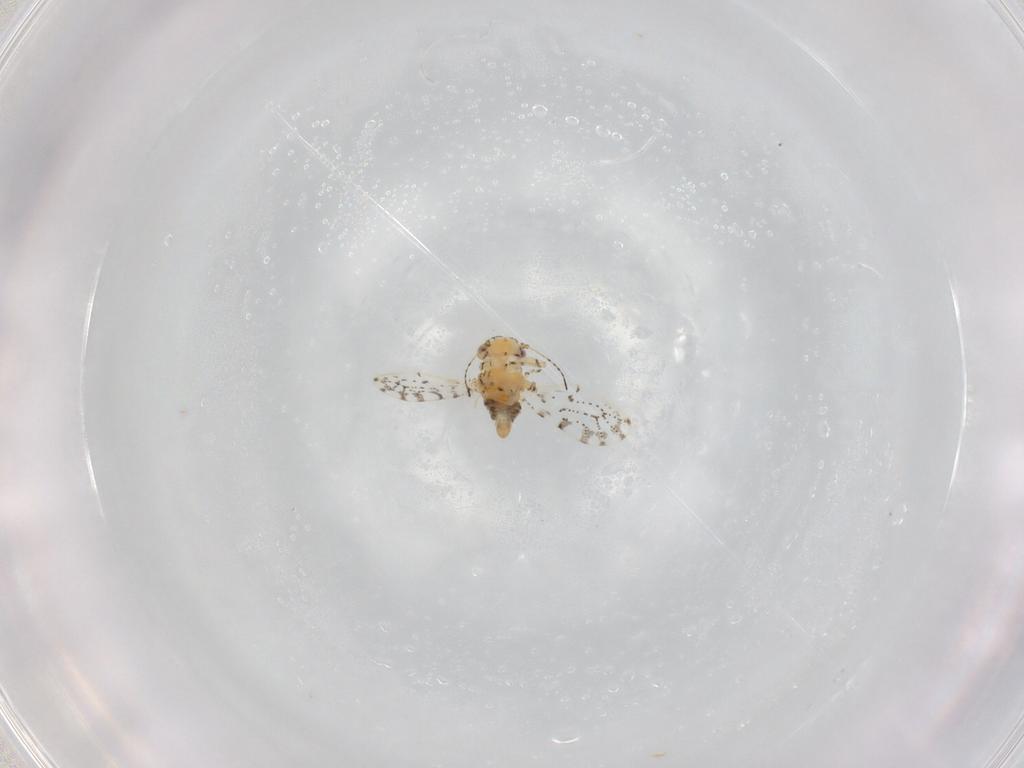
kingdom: Animalia
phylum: Arthropoda
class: Insecta
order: Hemiptera
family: Psylloidea_incertae_sedis
